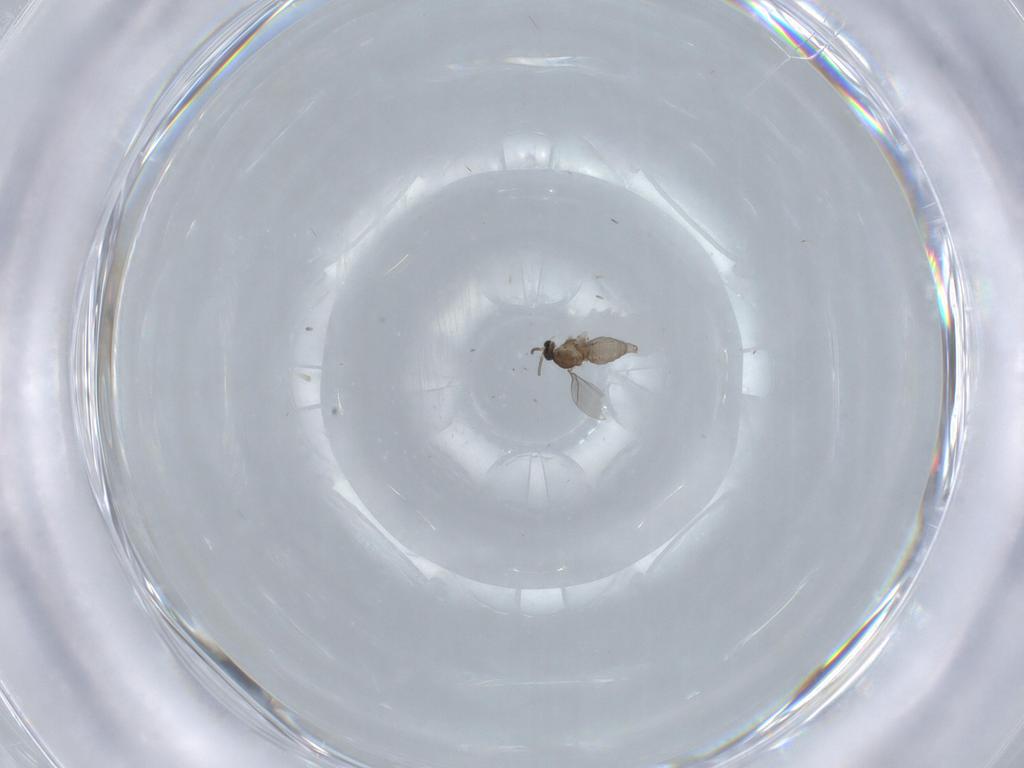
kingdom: Animalia
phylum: Arthropoda
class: Insecta
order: Diptera
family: Cecidomyiidae
